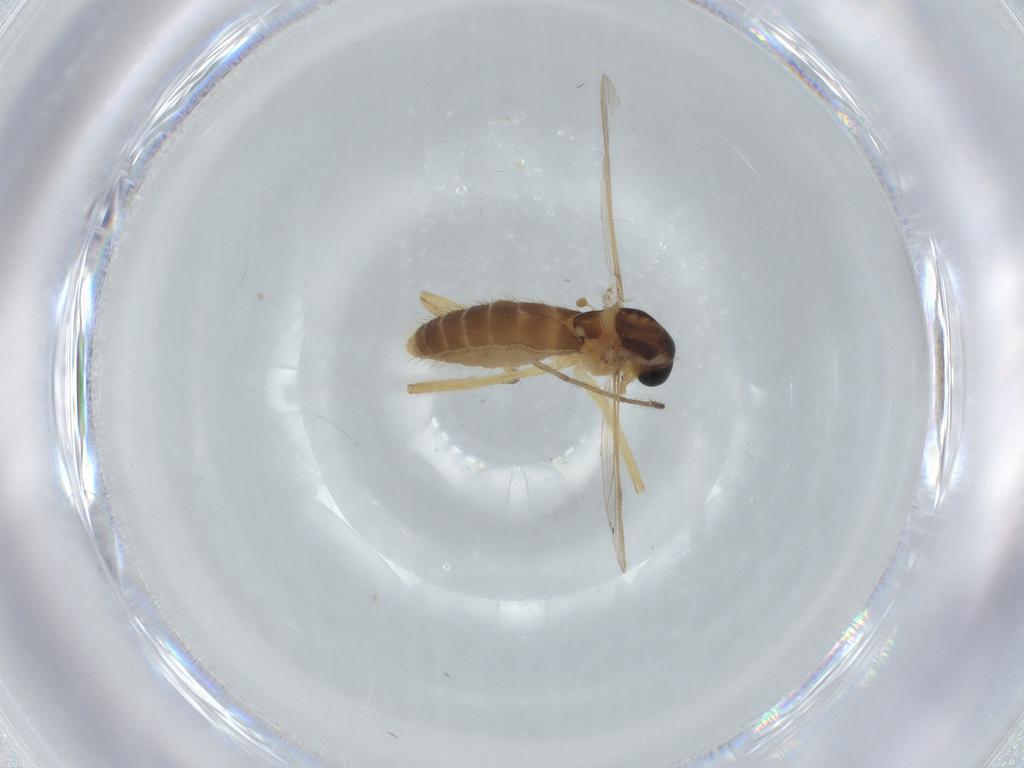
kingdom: Animalia
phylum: Arthropoda
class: Insecta
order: Diptera
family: Chironomidae
